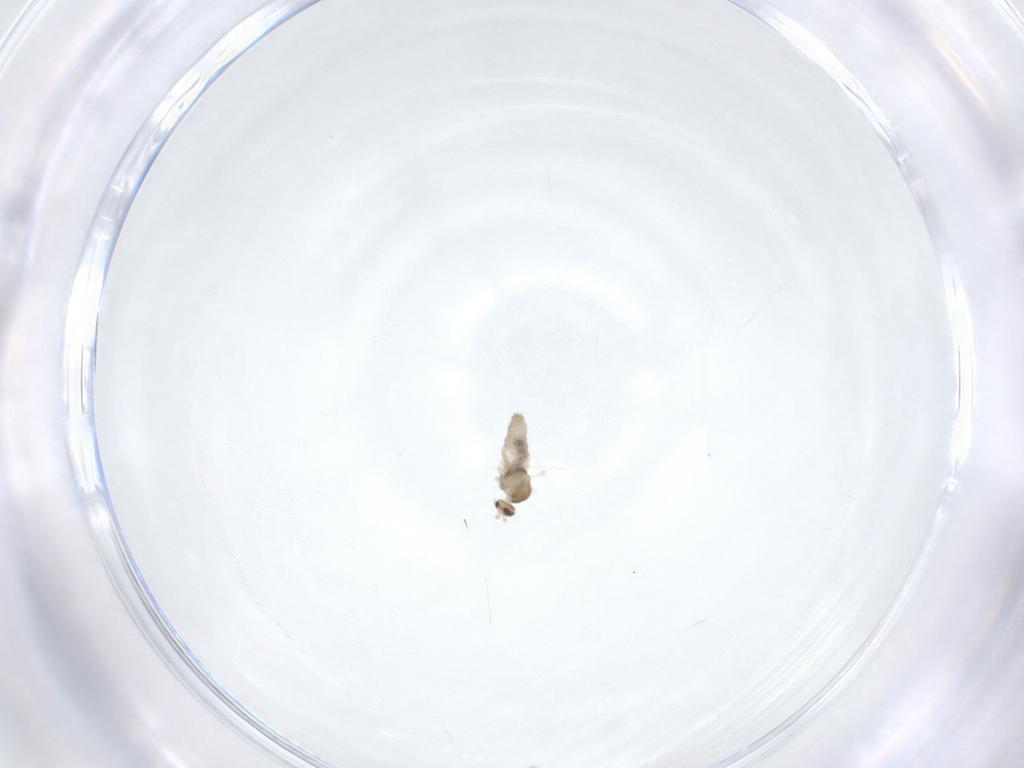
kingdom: Animalia
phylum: Arthropoda
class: Insecta
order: Diptera
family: Cecidomyiidae
